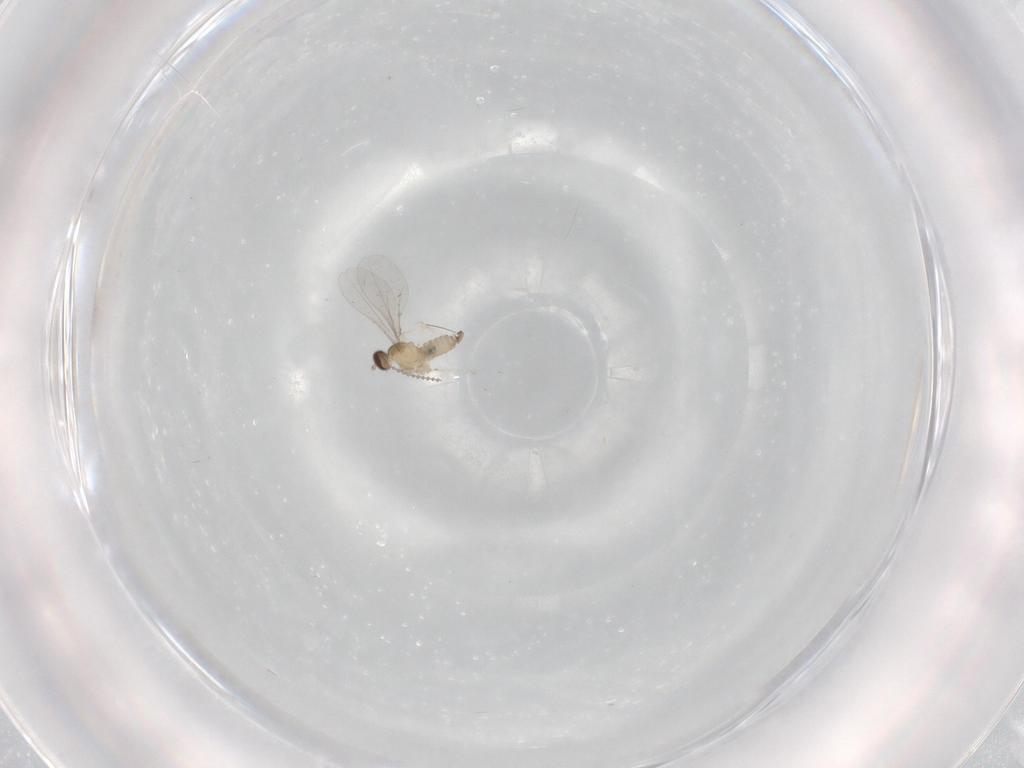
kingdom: Animalia
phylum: Arthropoda
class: Insecta
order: Diptera
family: Cecidomyiidae
